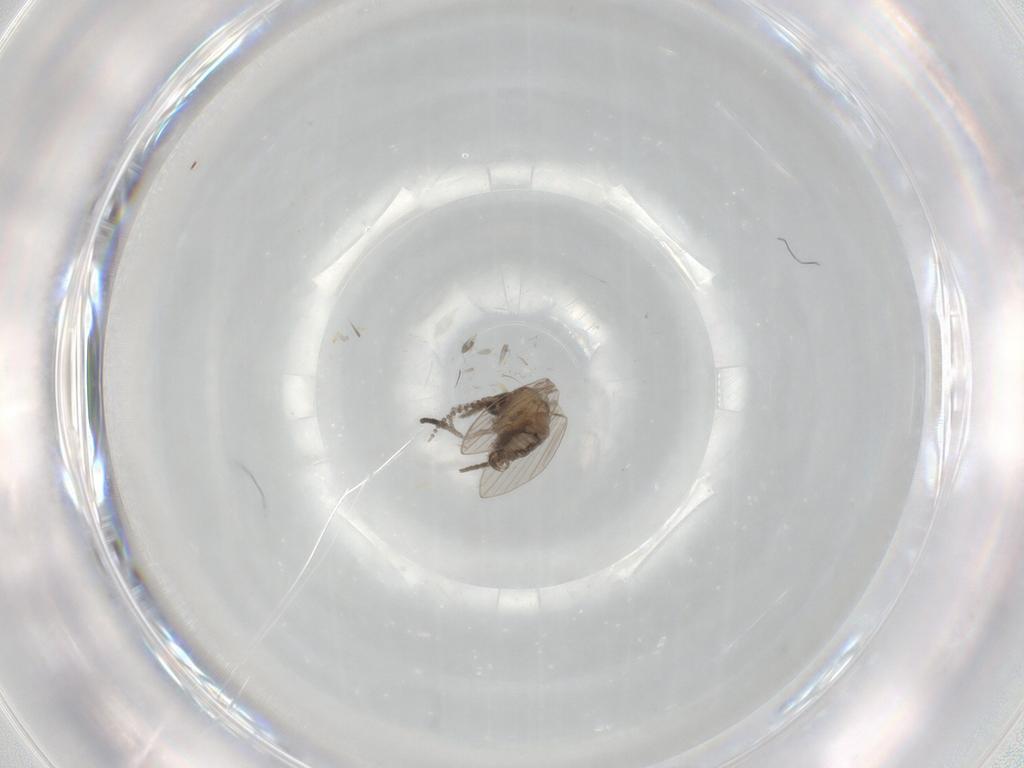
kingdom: Animalia
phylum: Arthropoda
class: Insecta
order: Diptera
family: Psychodidae
